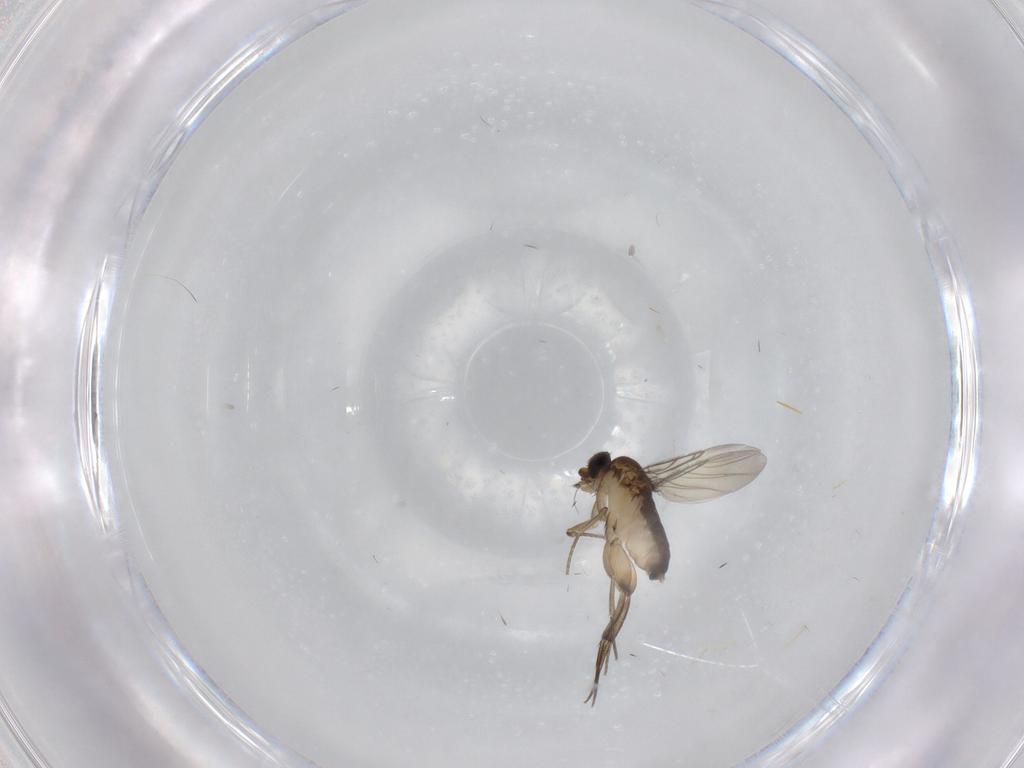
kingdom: Animalia
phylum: Arthropoda
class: Insecta
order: Diptera
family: Phoridae
